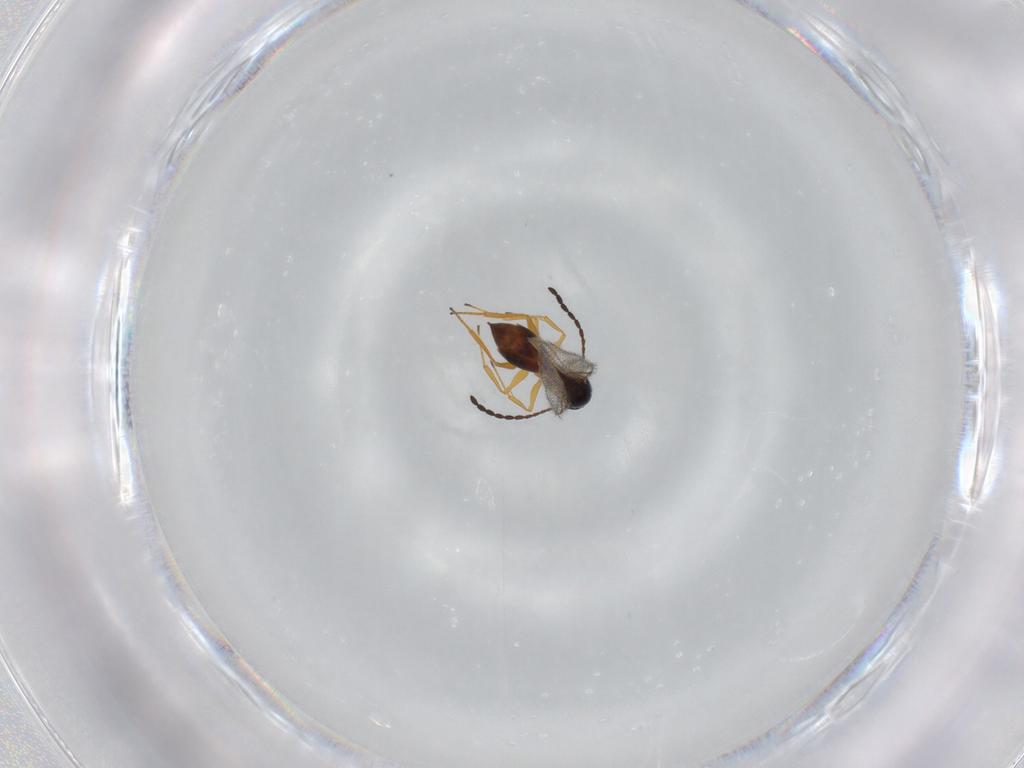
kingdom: Animalia
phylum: Arthropoda
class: Insecta
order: Hymenoptera
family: Figitidae
